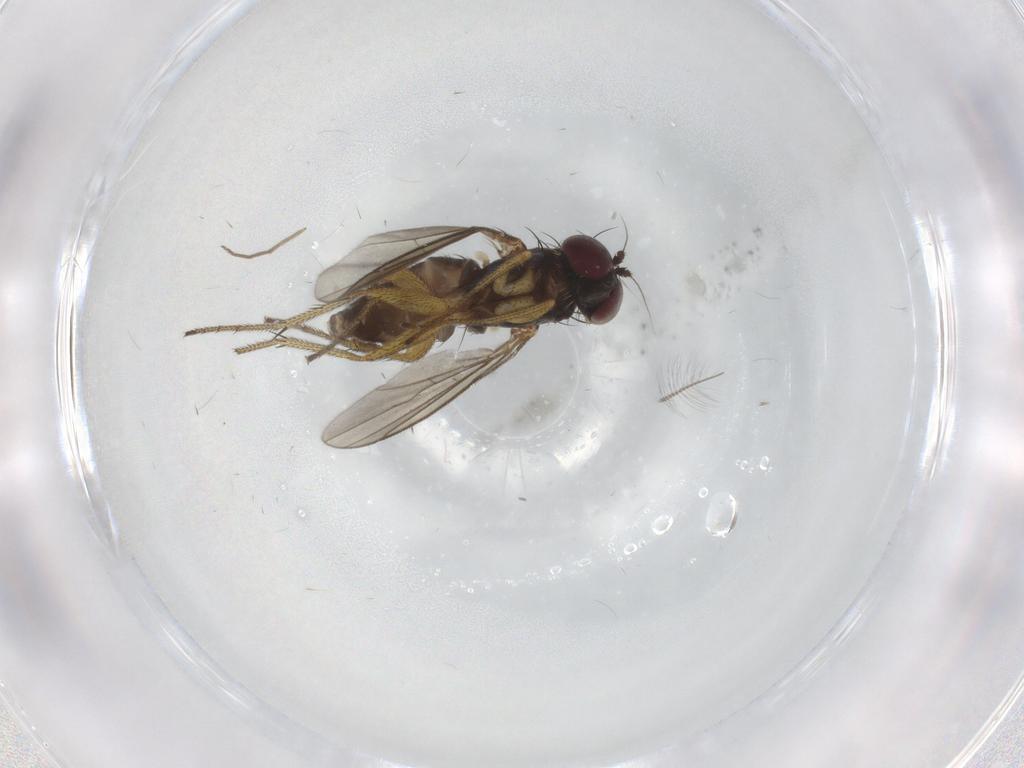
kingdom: Animalia
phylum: Arthropoda
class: Insecta
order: Diptera
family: Dolichopodidae
